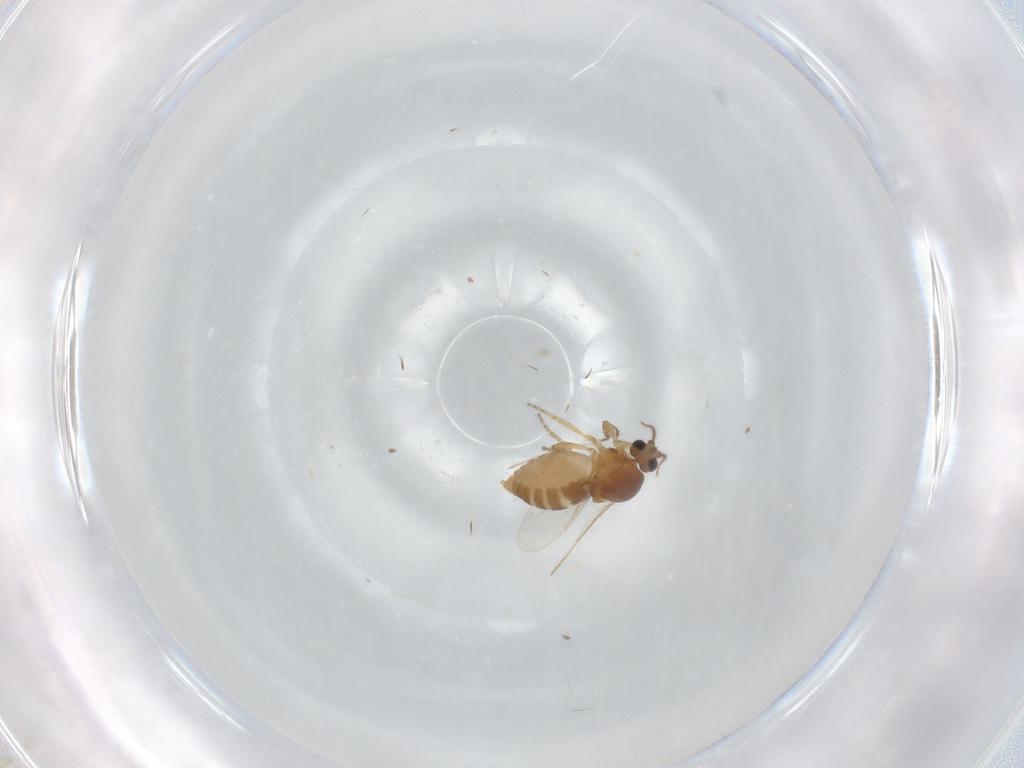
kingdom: Animalia
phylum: Arthropoda
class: Insecta
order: Diptera
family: Ceratopogonidae
